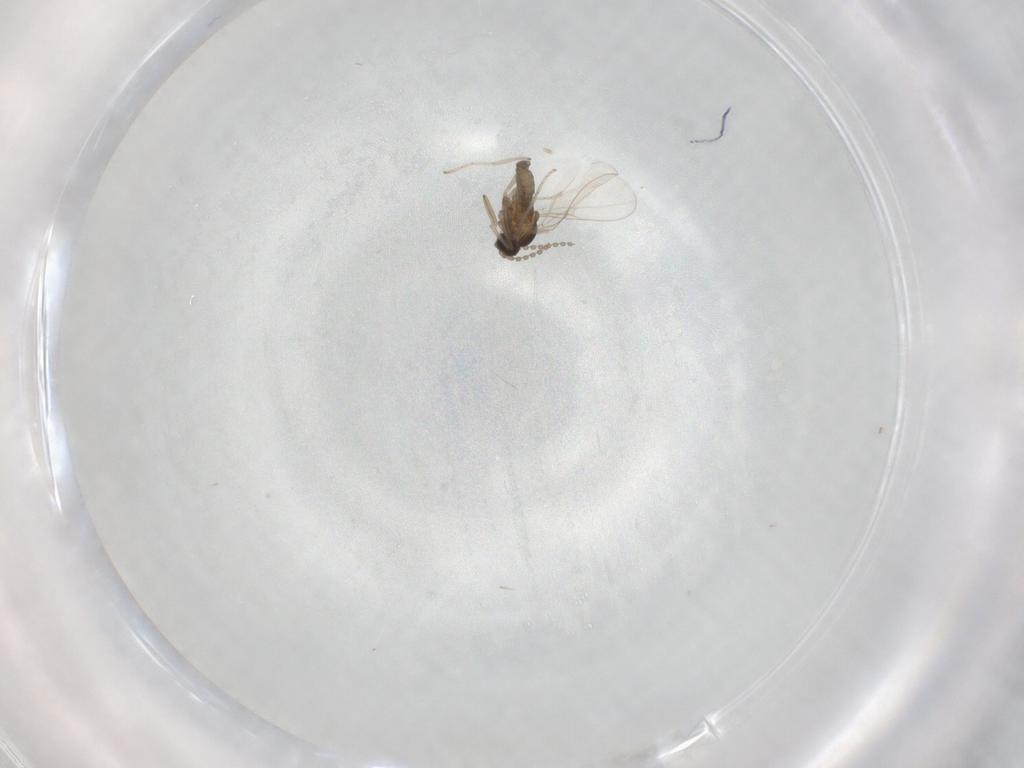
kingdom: Animalia
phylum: Arthropoda
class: Insecta
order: Diptera
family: Cecidomyiidae
